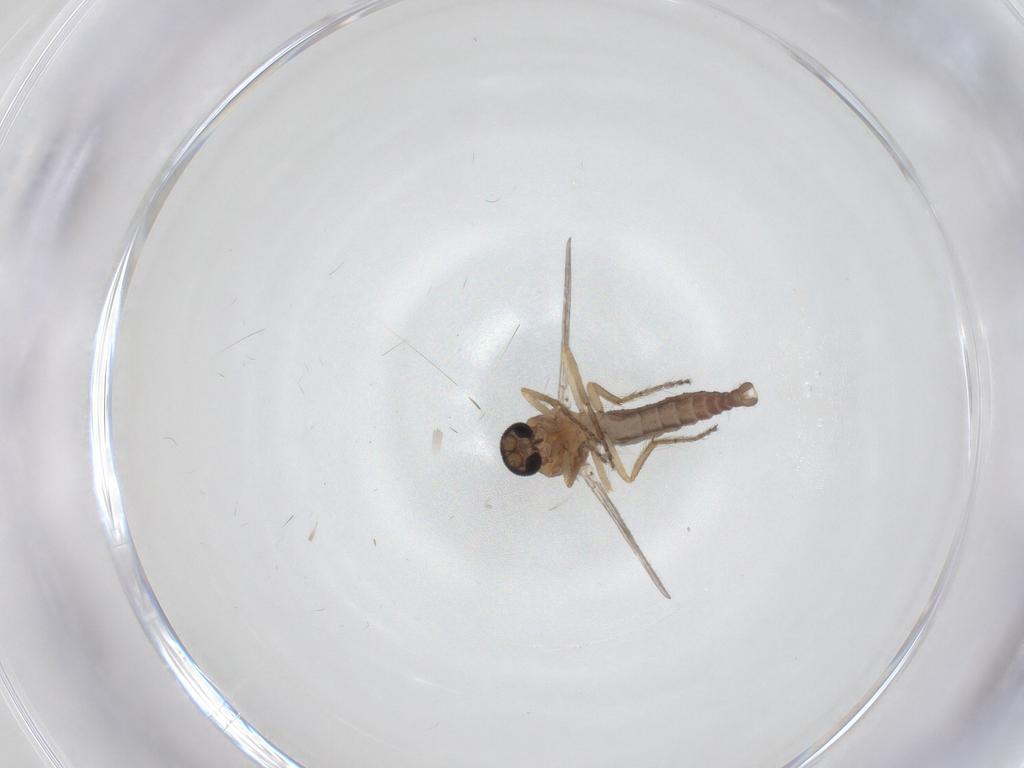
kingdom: Animalia
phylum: Arthropoda
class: Insecta
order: Diptera
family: Ceratopogonidae
